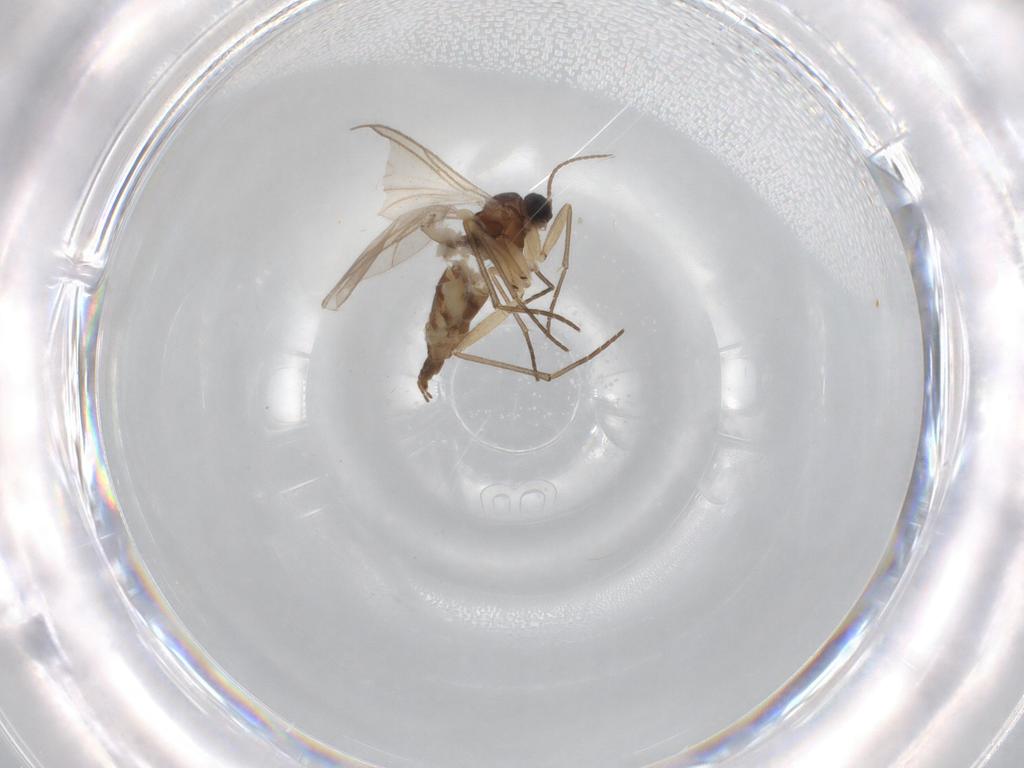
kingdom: Animalia
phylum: Arthropoda
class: Insecta
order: Diptera
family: Sciaridae
